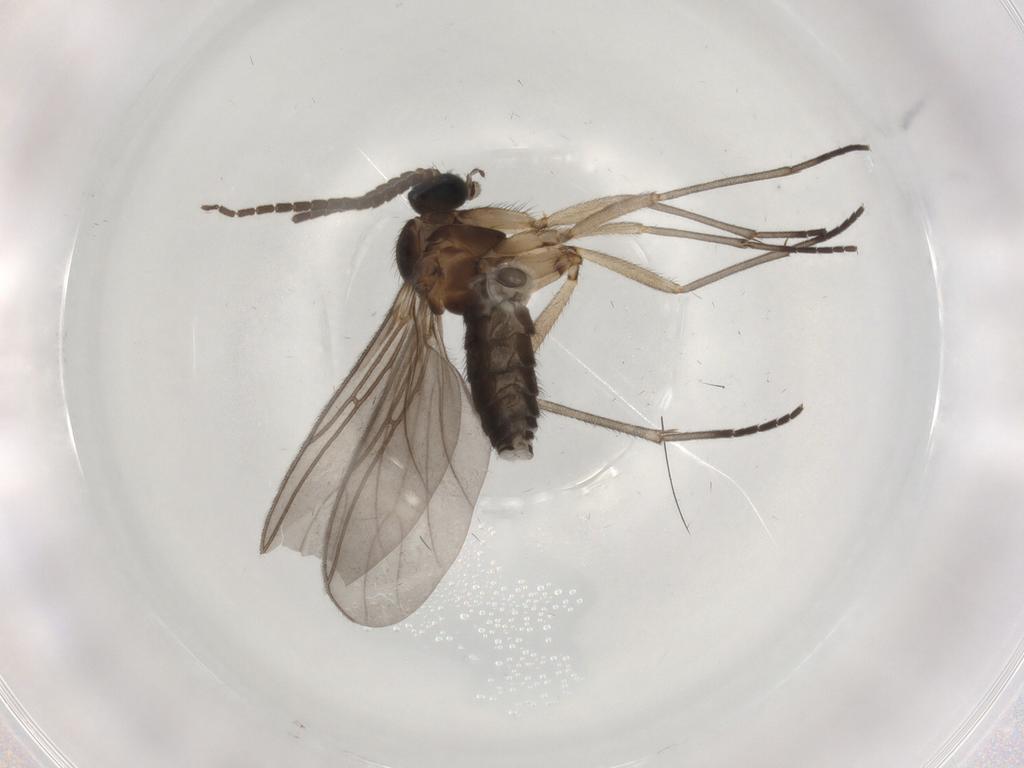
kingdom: Animalia
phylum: Arthropoda
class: Insecta
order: Diptera
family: Sciaridae
